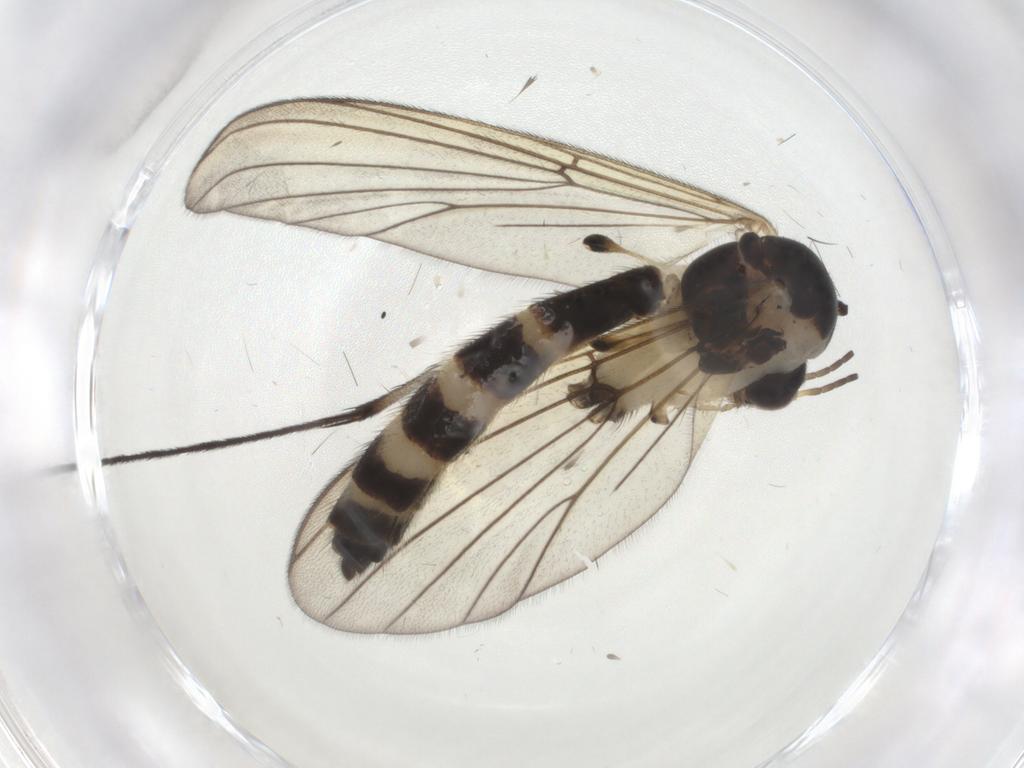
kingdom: Animalia
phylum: Arthropoda
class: Insecta
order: Diptera
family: Mycetophilidae
